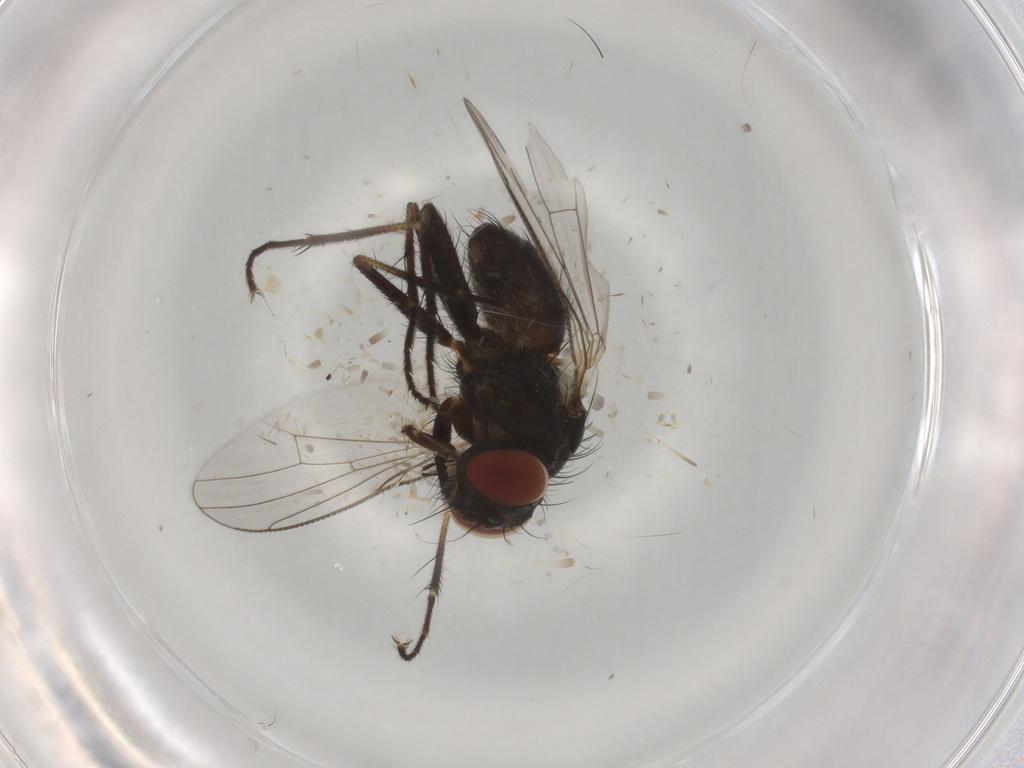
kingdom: Animalia
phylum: Arthropoda
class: Insecta
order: Diptera
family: Muscidae
